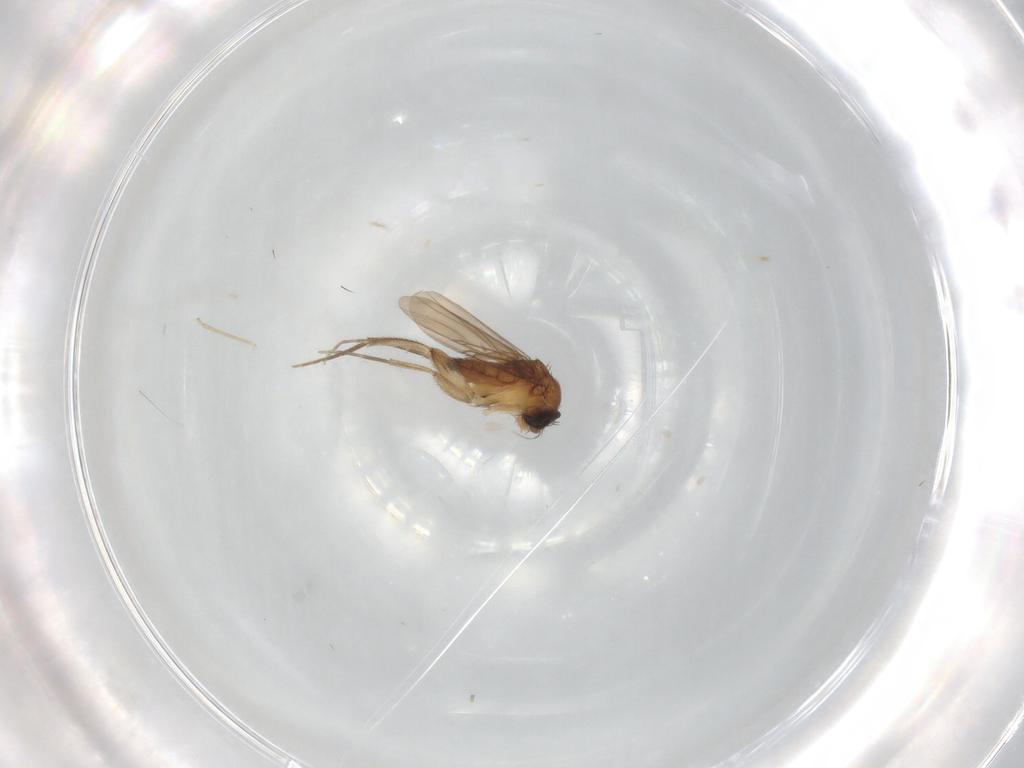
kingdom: Animalia
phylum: Arthropoda
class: Insecta
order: Diptera
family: Phoridae
